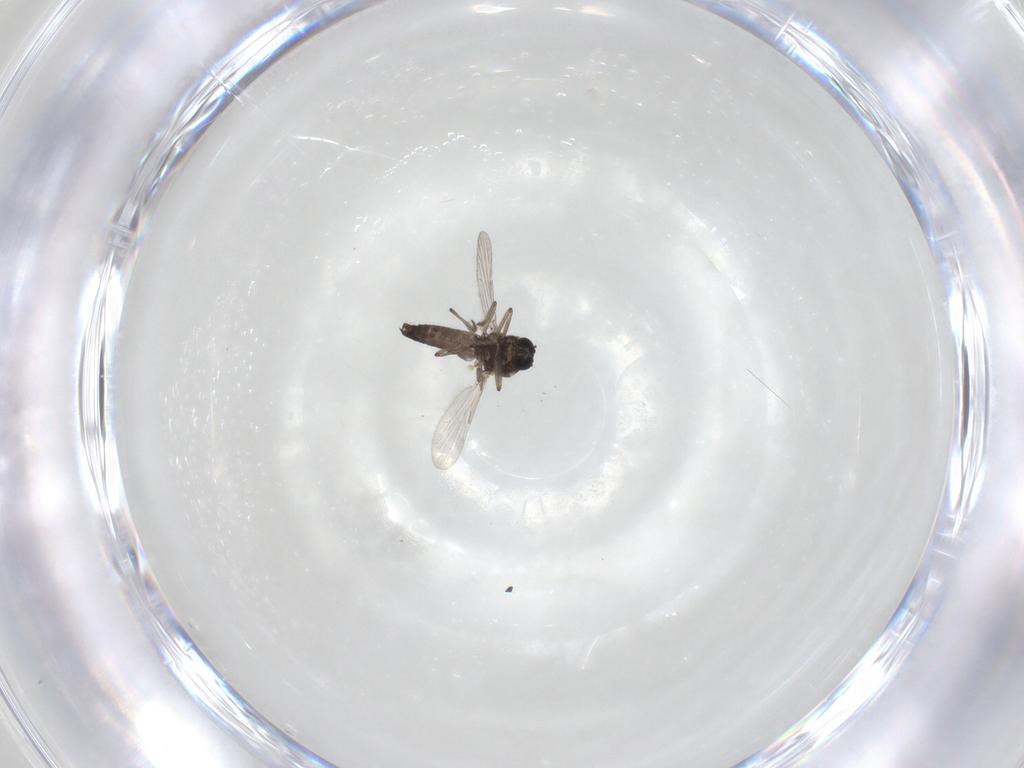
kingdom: Animalia
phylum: Arthropoda
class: Insecta
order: Diptera
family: Ceratopogonidae
